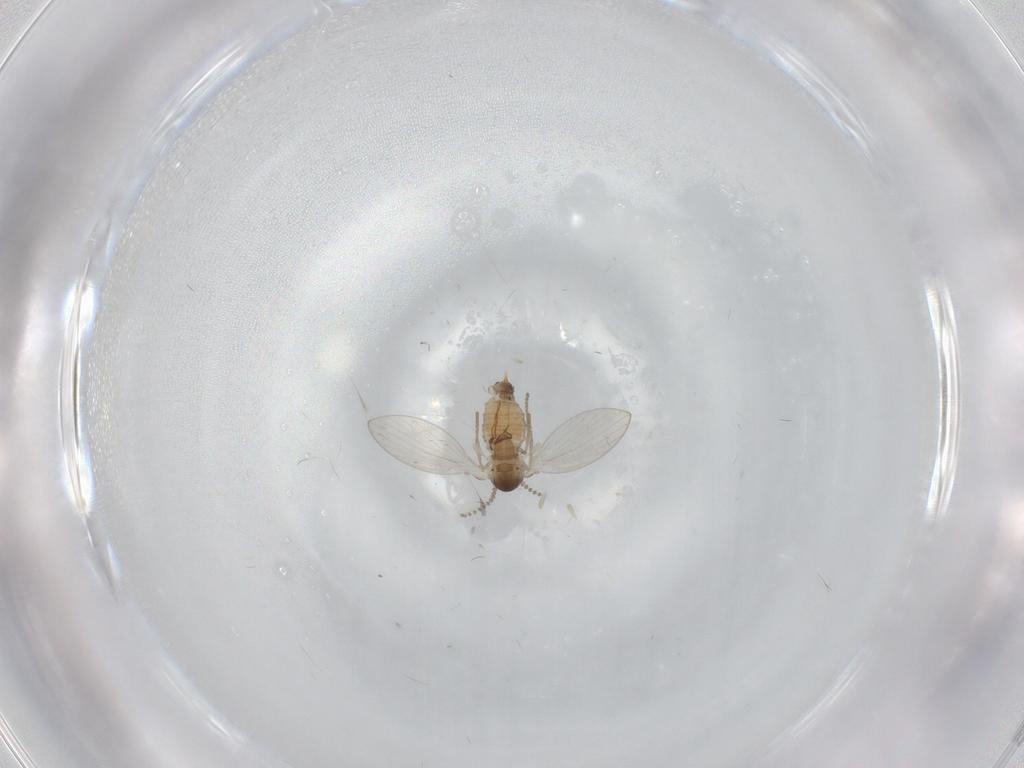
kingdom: Animalia
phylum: Arthropoda
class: Insecta
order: Diptera
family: Psychodidae
